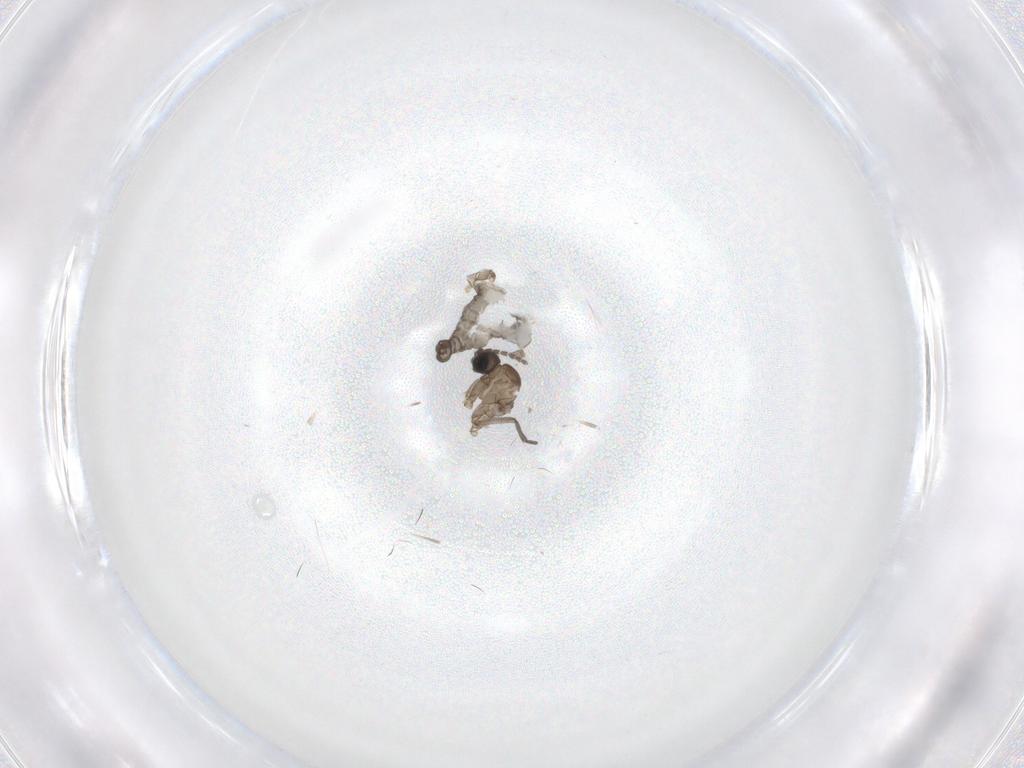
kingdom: Animalia
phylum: Arthropoda
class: Insecta
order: Diptera
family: Sciaridae
